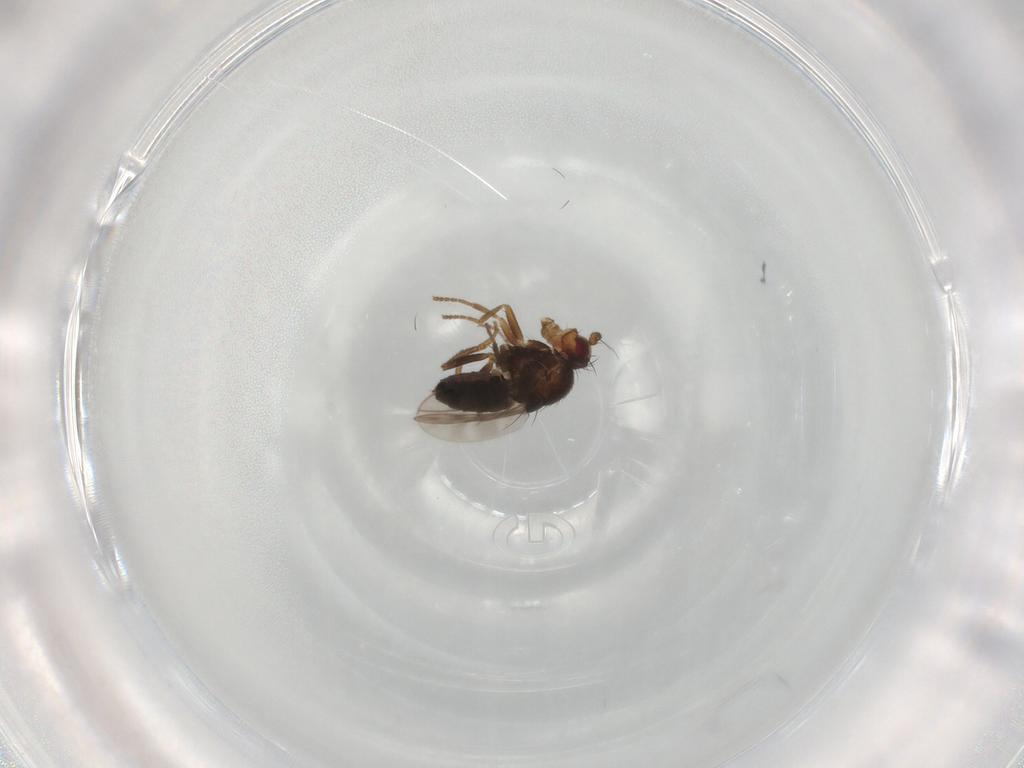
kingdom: Animalia
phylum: Arthropoda
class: Insecta
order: Diptera
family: Sphaeroceridae
